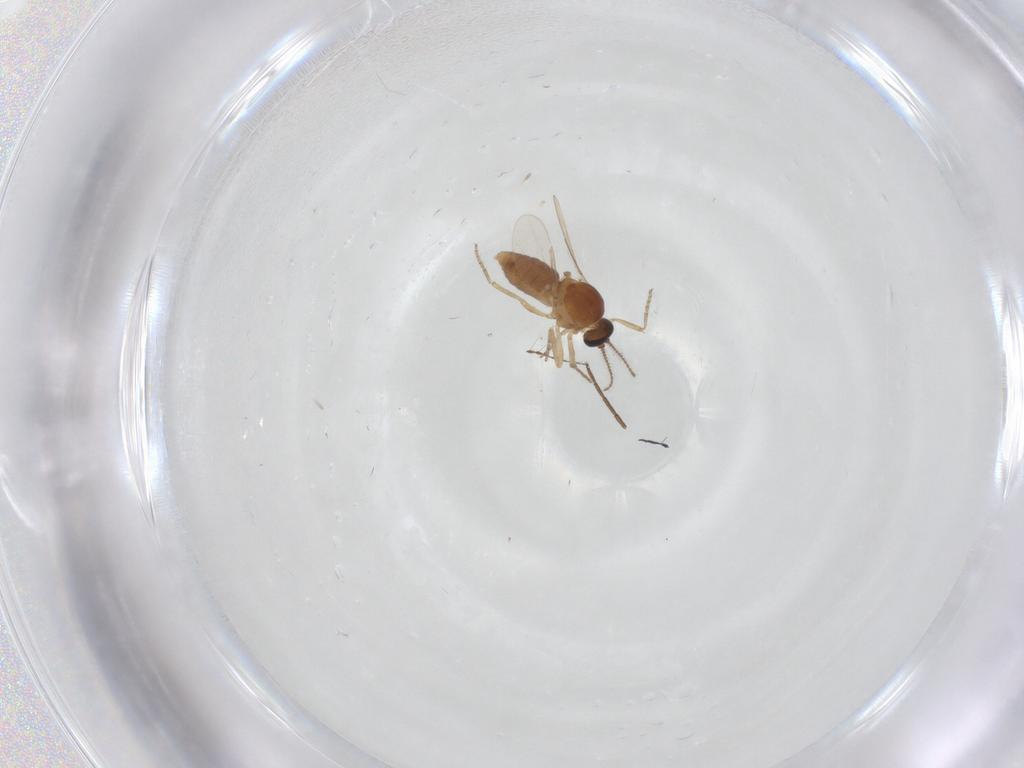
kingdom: Animalia
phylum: Arthropoda
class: Insecta
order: Diptera
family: Ceratopogonidae
